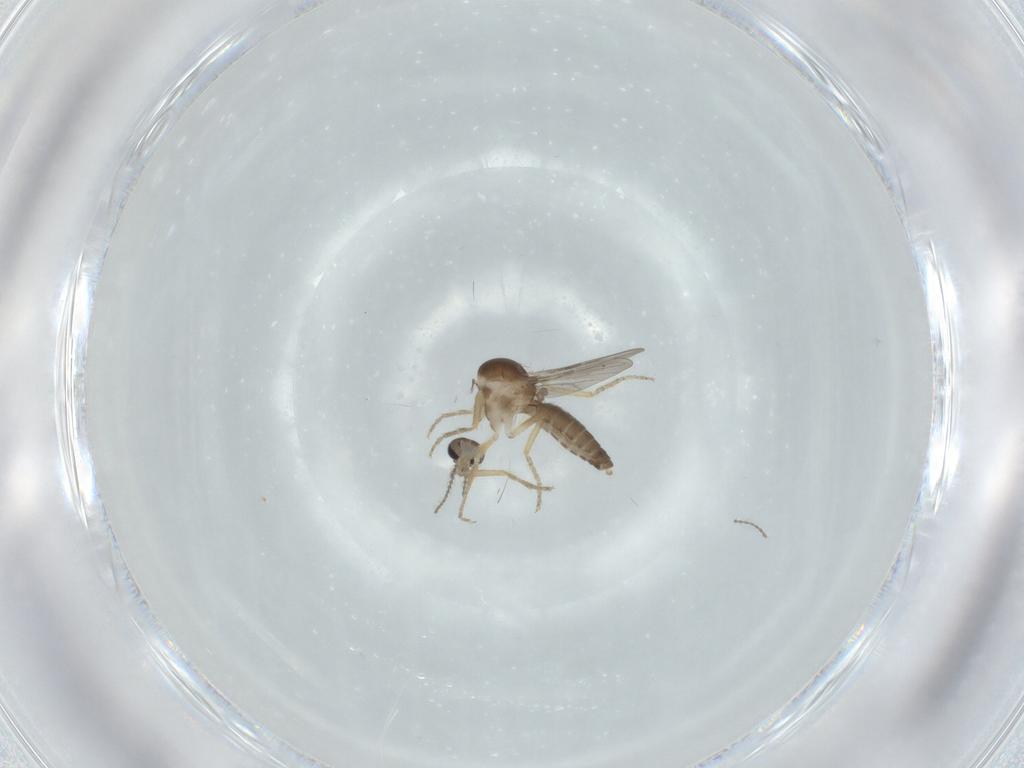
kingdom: Animalia
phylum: Arthropoda
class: Insecta
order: Diptera
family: Ceratopogonidae
